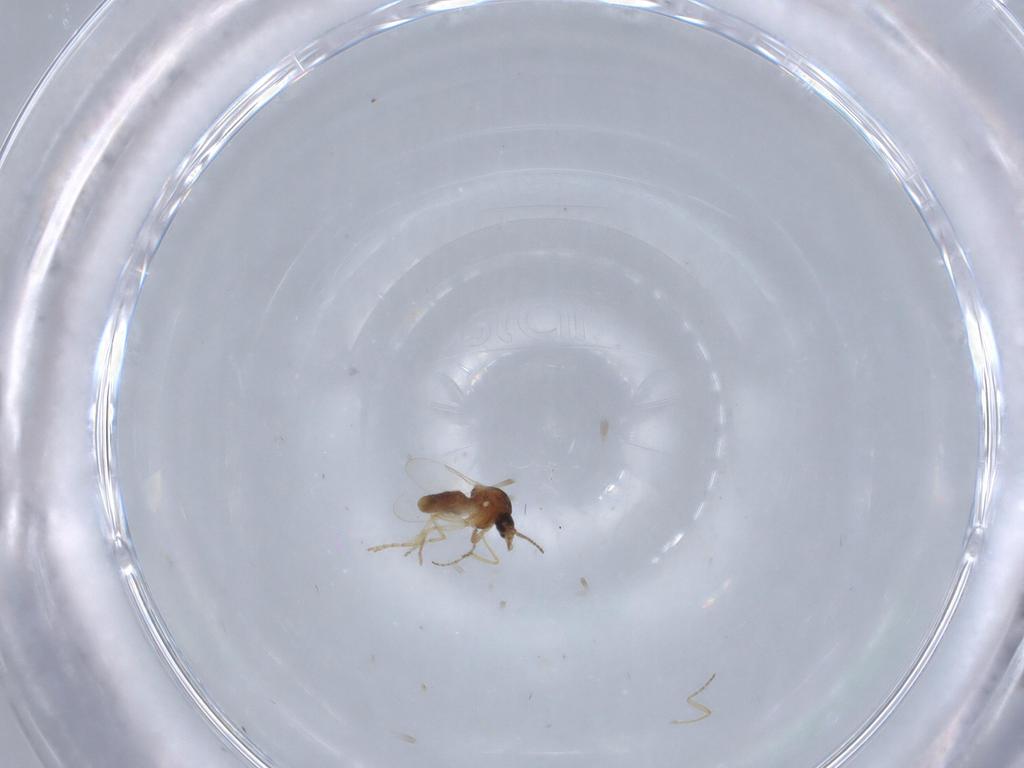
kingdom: Animalia
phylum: Arthropoda
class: Insecta
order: Diptera
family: Ceratopogonidae
